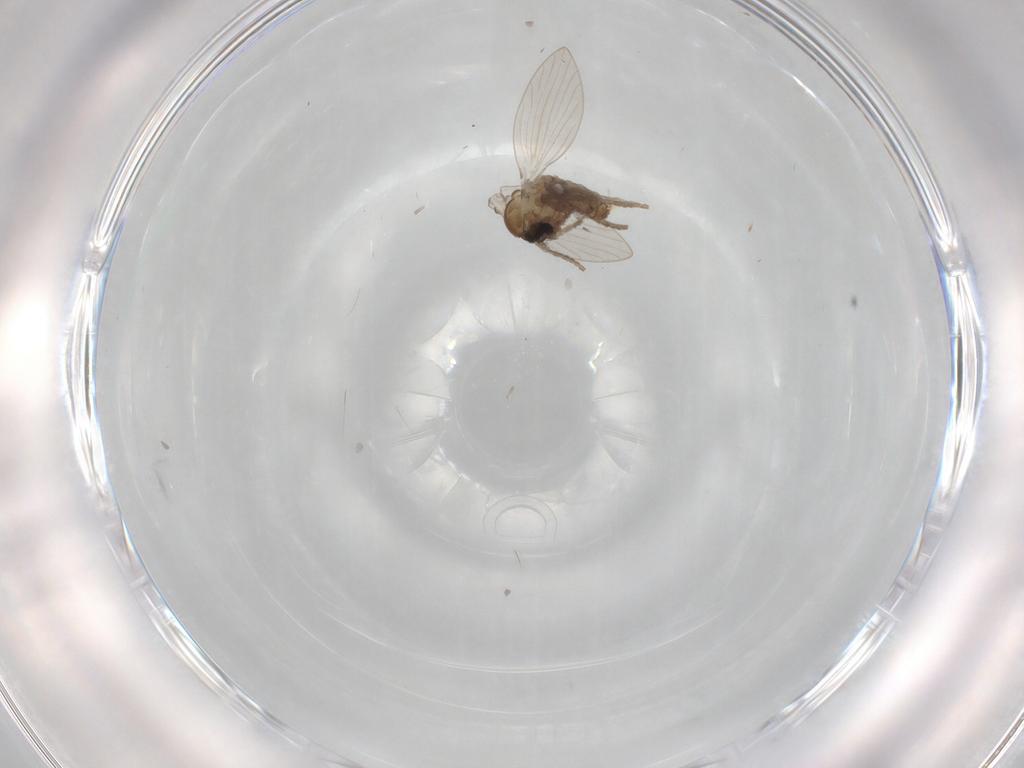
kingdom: Animalia
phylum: Arthropoda
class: Insecta
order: Diptera
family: Psychodidae
